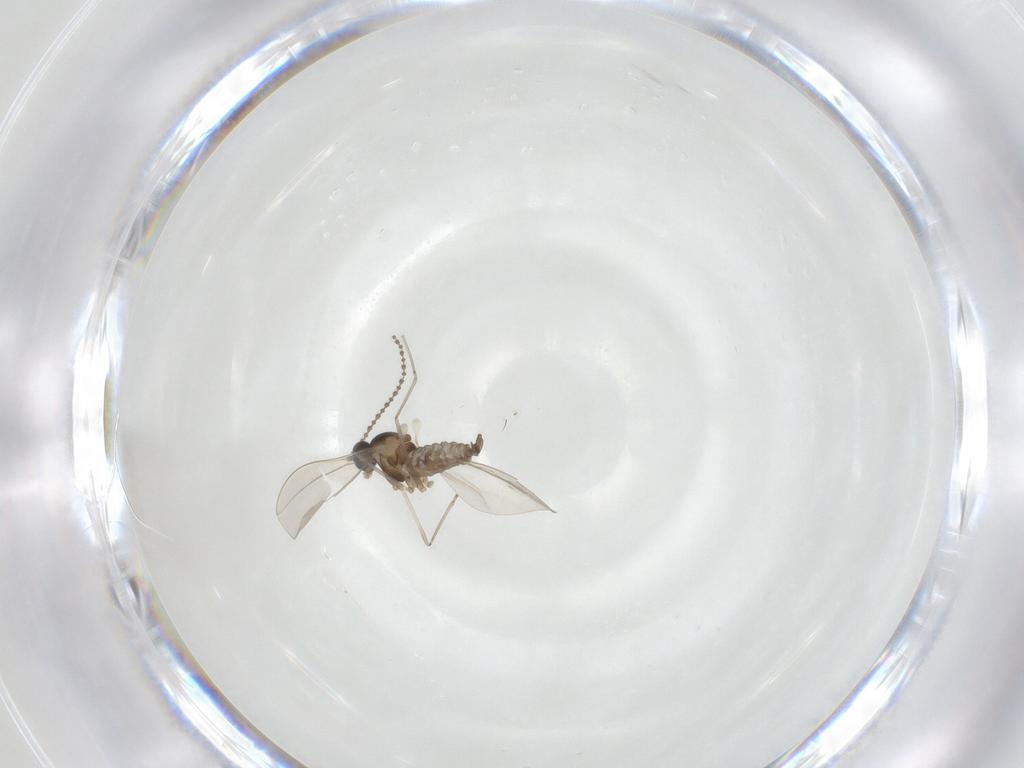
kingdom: Animalia
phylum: Arthropoda
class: Insecta
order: Diptera
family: Cecidomyiidae
